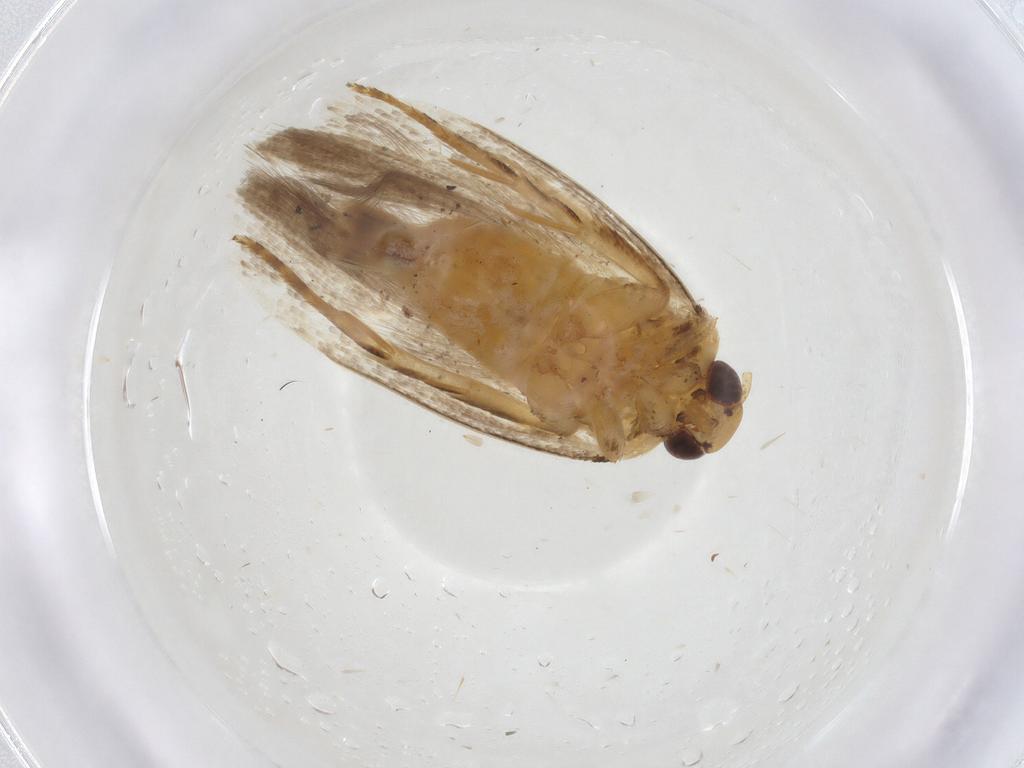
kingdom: Animalia
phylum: Arthropoda
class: Insecta
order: Lepidoptera
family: Gelechiidae
